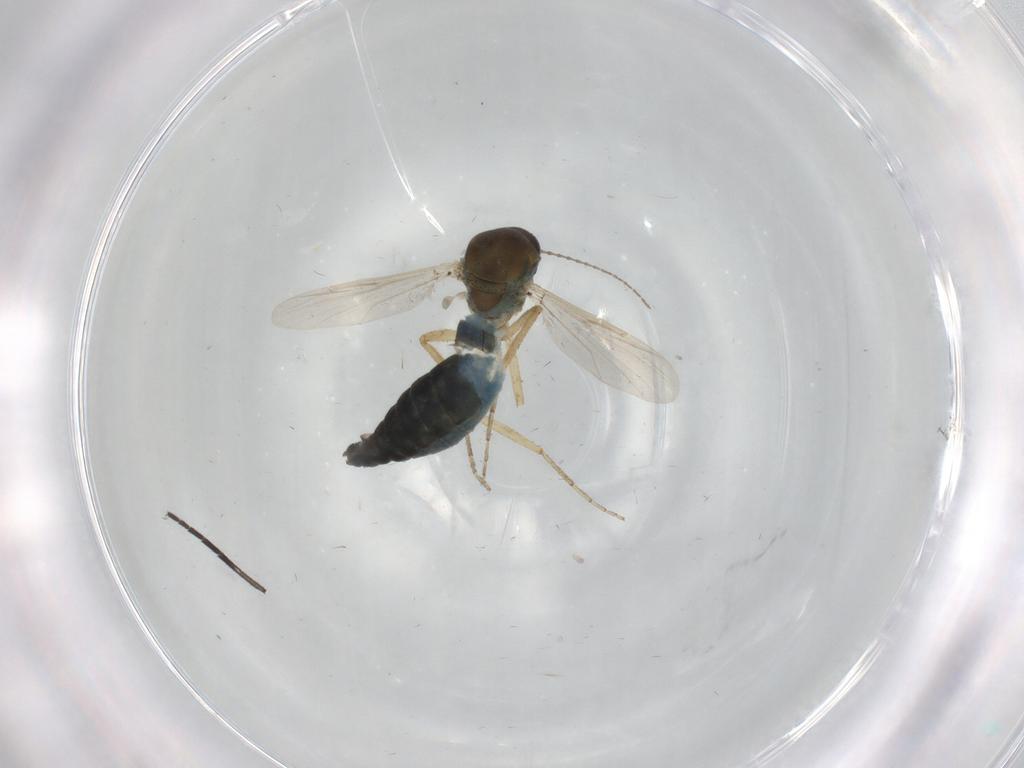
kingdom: Animalia
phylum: Arthropoda
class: Insecta
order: Diptera
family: Ceratopogonidae
